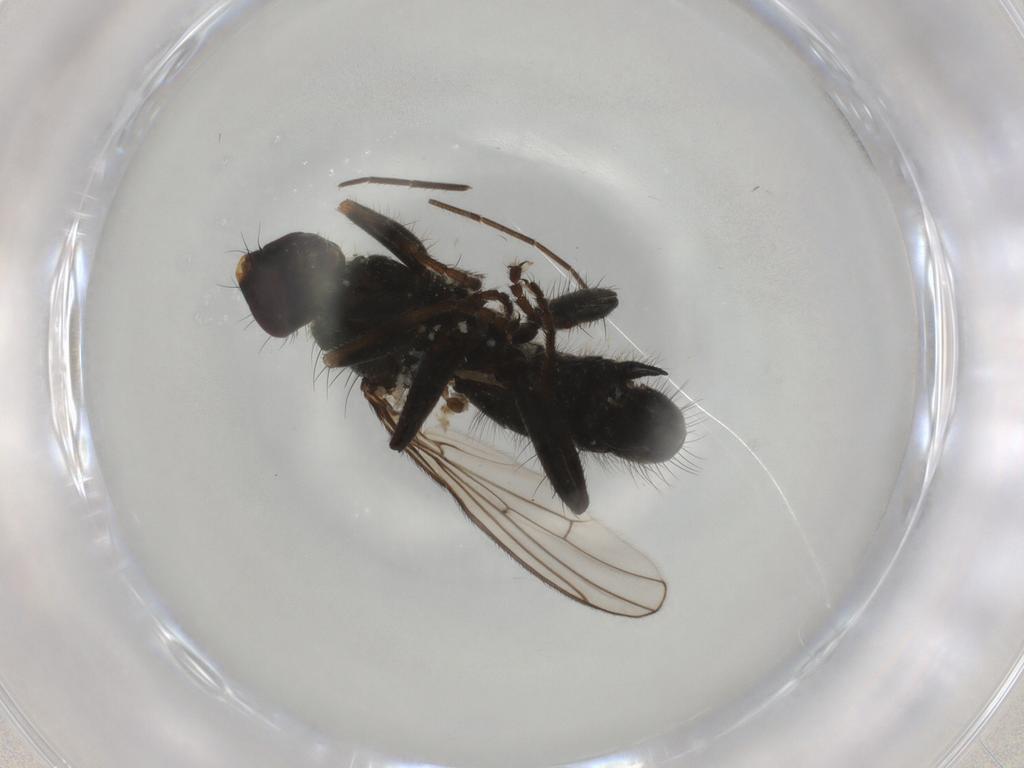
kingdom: Animalia
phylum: Arthropoda
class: Insecta
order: Diptera
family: Scathophagidae
